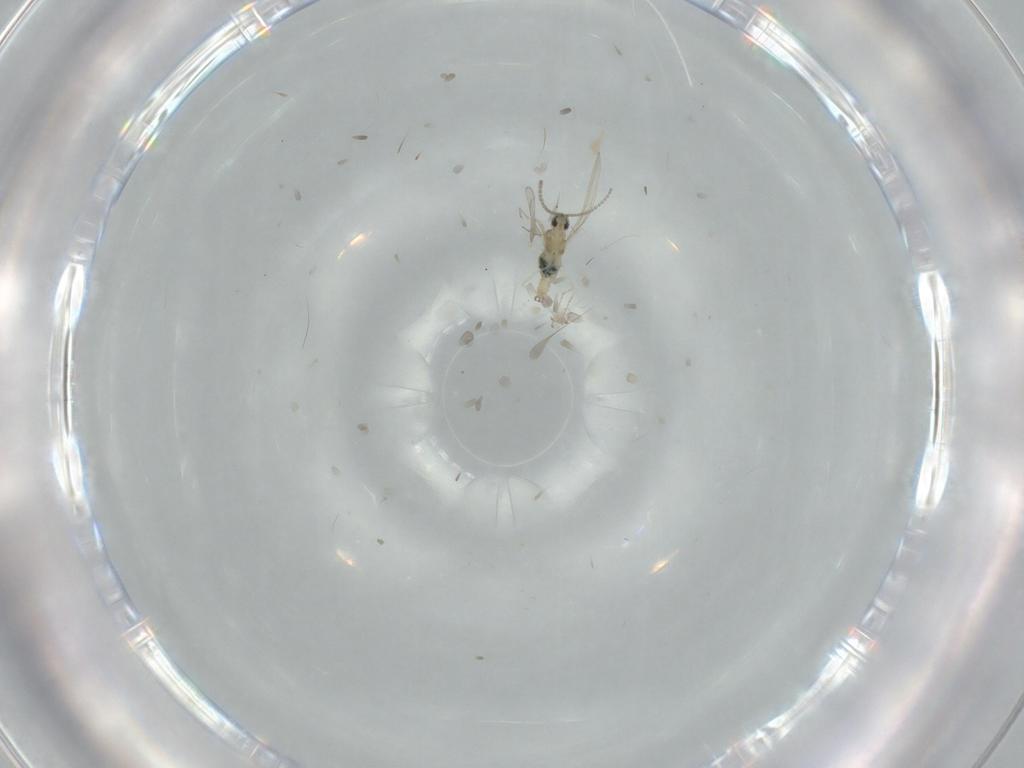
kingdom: Animalia
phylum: Arthropoda
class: Insecta
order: Diptera
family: Cecidomyiidae
